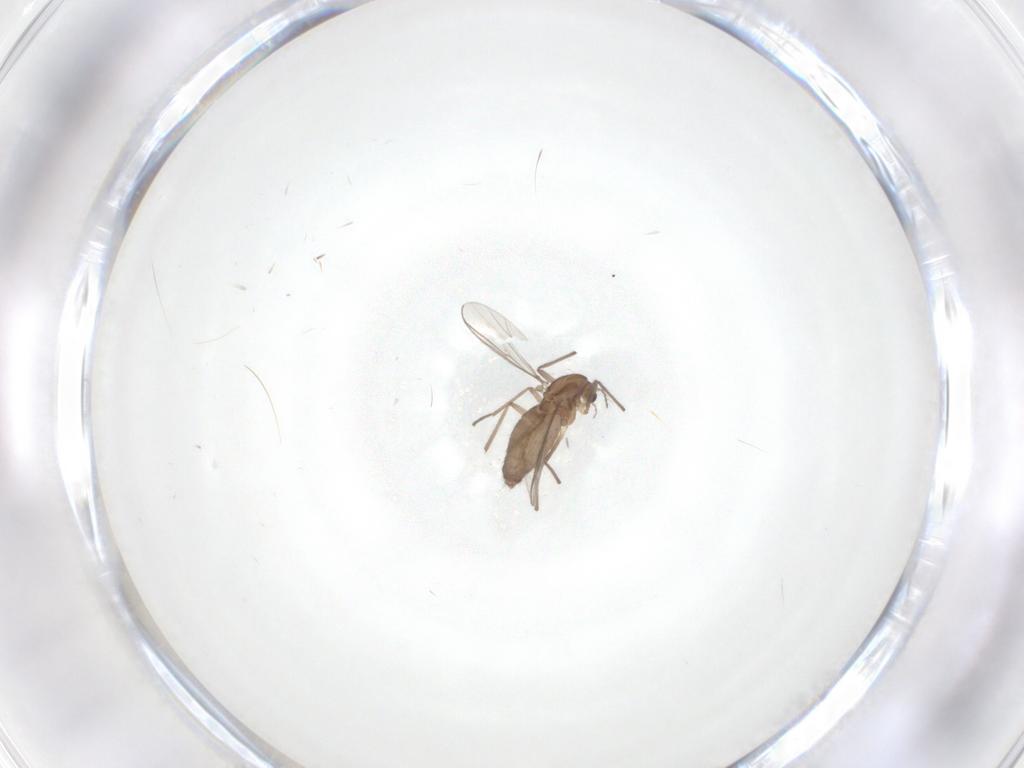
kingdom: Animalia
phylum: Arthropoda
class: Insecta
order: Diptera
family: Chironomidae
